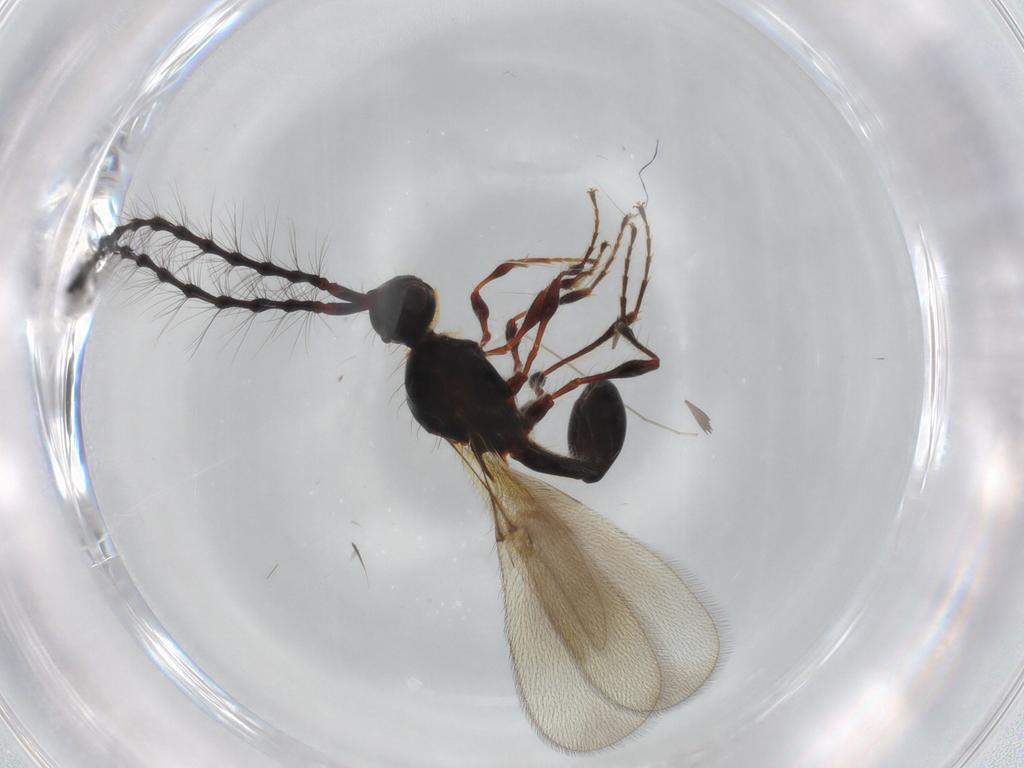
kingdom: Animalia
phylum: Arthropoda
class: Insecta
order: Hymenoptera
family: Diapriidae
